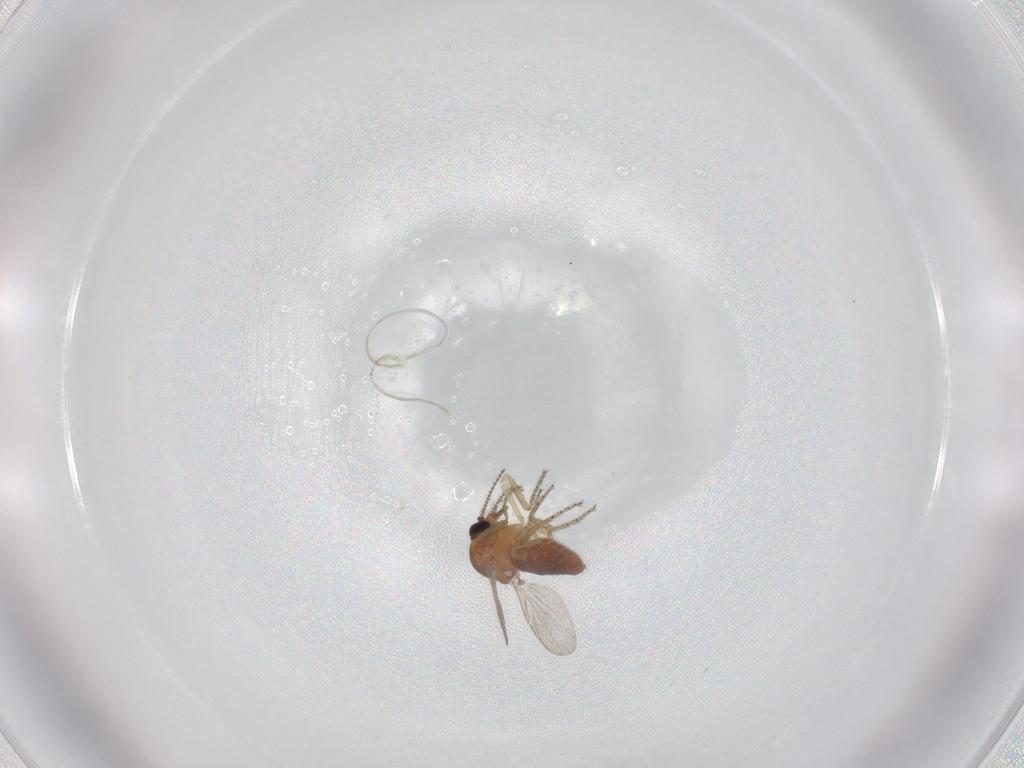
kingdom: Animalia
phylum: Arthropoda
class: Insecta
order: Diptera
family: Ceratopogonidae
